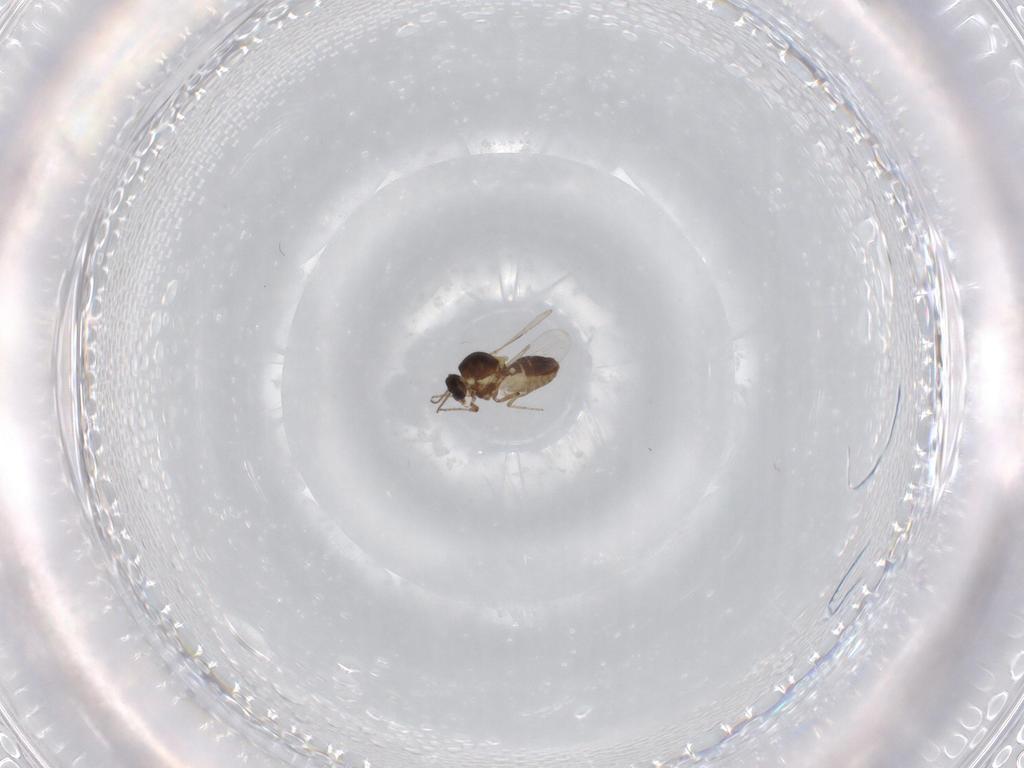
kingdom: Animalia
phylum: Arthropoda
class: Insecta
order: Diptera
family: Ceratopogonidae
